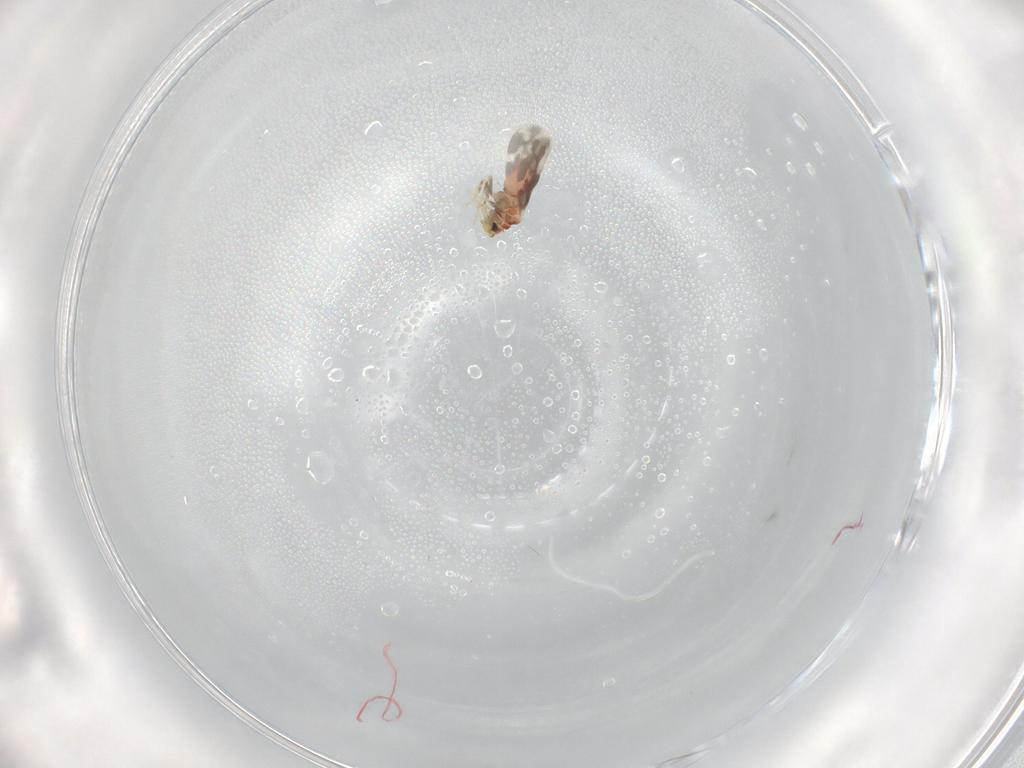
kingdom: Animalia
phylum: Arthropoda
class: Insecta
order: Hemiptera
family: Aleyrodidae
